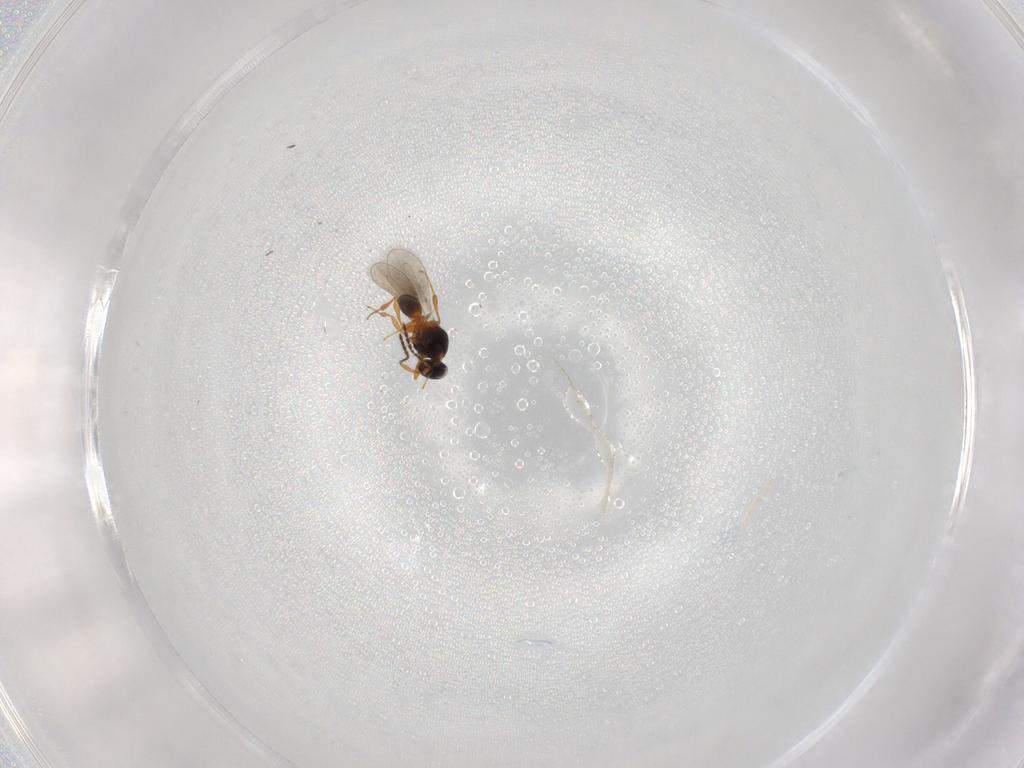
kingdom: Animalia
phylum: Arthropoda
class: Insecta
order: Hymenoptera
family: Platygastridae
